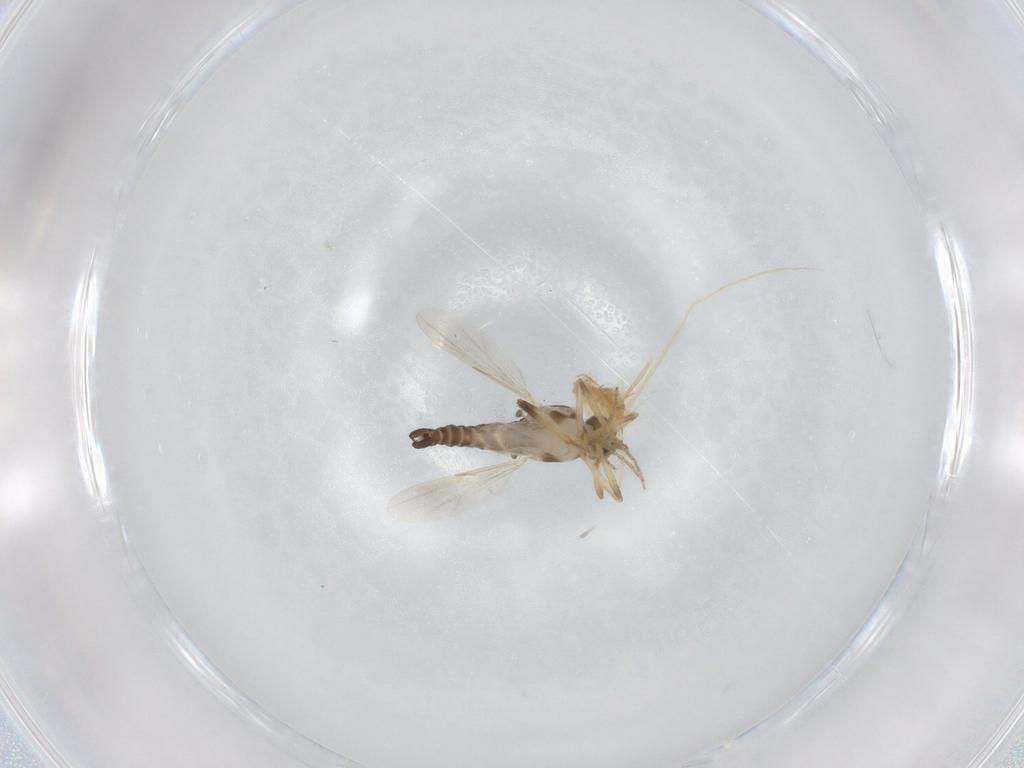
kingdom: Animalia
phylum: Arthropoda
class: Insecta
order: Diptera
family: Ceratopogonidae
